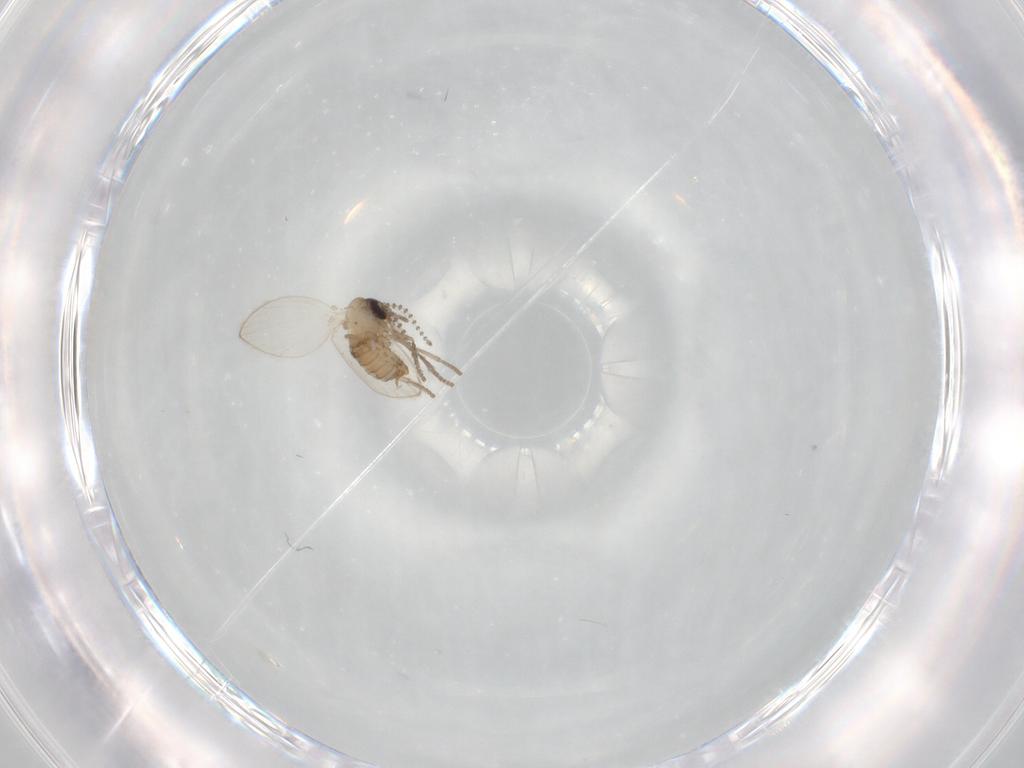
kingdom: Animalia
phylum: Arthropoda
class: Insecta
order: Diptera
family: Psychodidae
